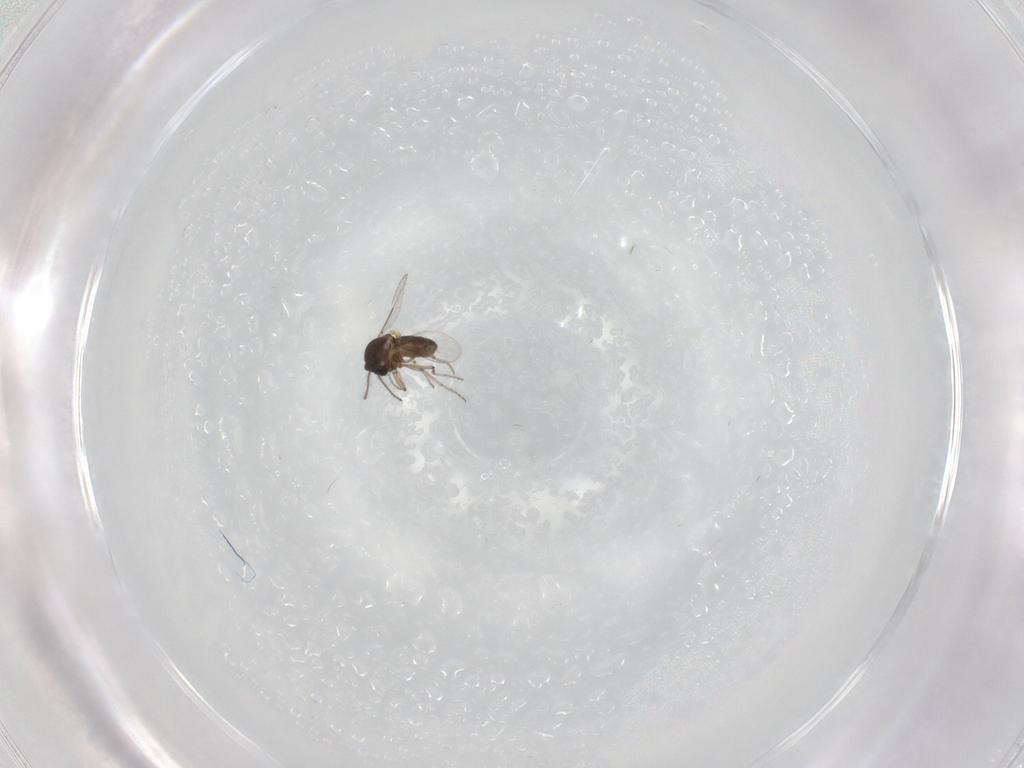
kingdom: Animalia
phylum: Arthropoda
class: Insecta
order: Diptera
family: Ceratopogonidae
